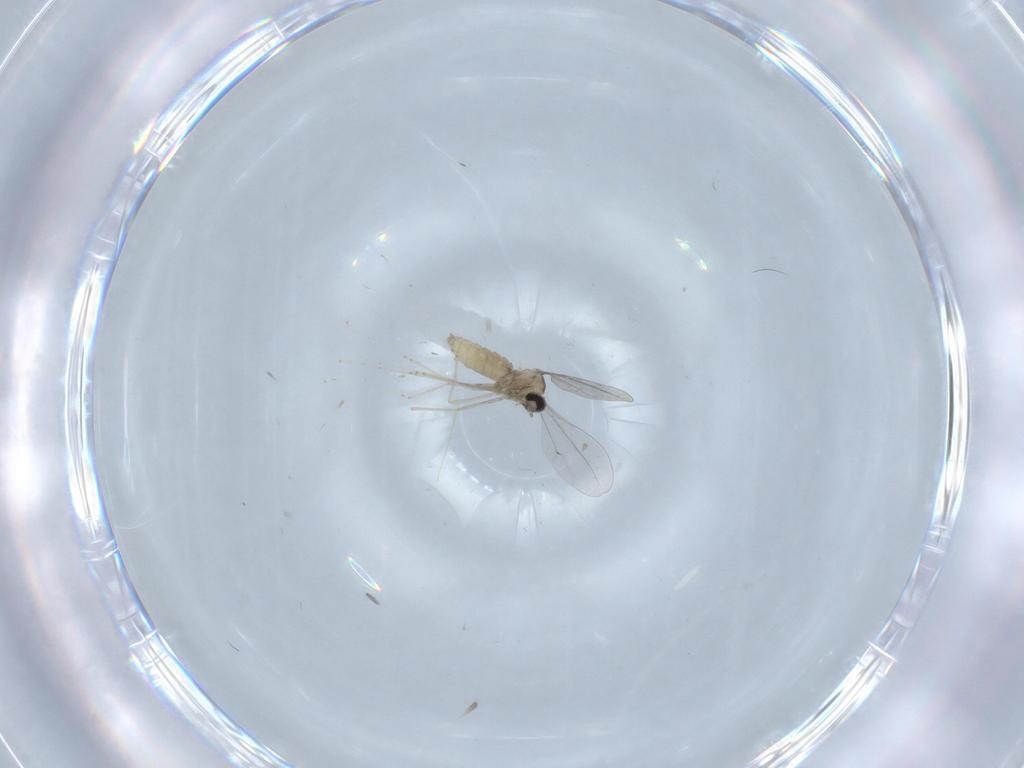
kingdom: Animalia
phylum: Arthropoda
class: Insecta
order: Diptera
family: Cecidomyiidae
